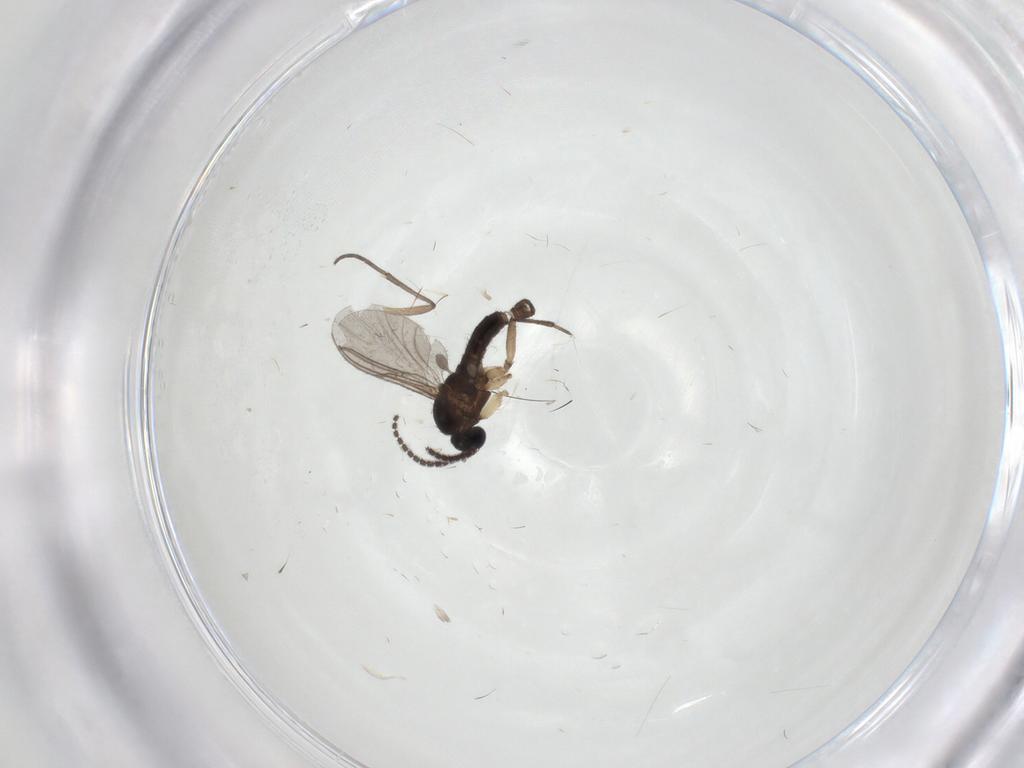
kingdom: Animalia
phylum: Arthropoda
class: Insecta
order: Diptera
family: Sciaridae
